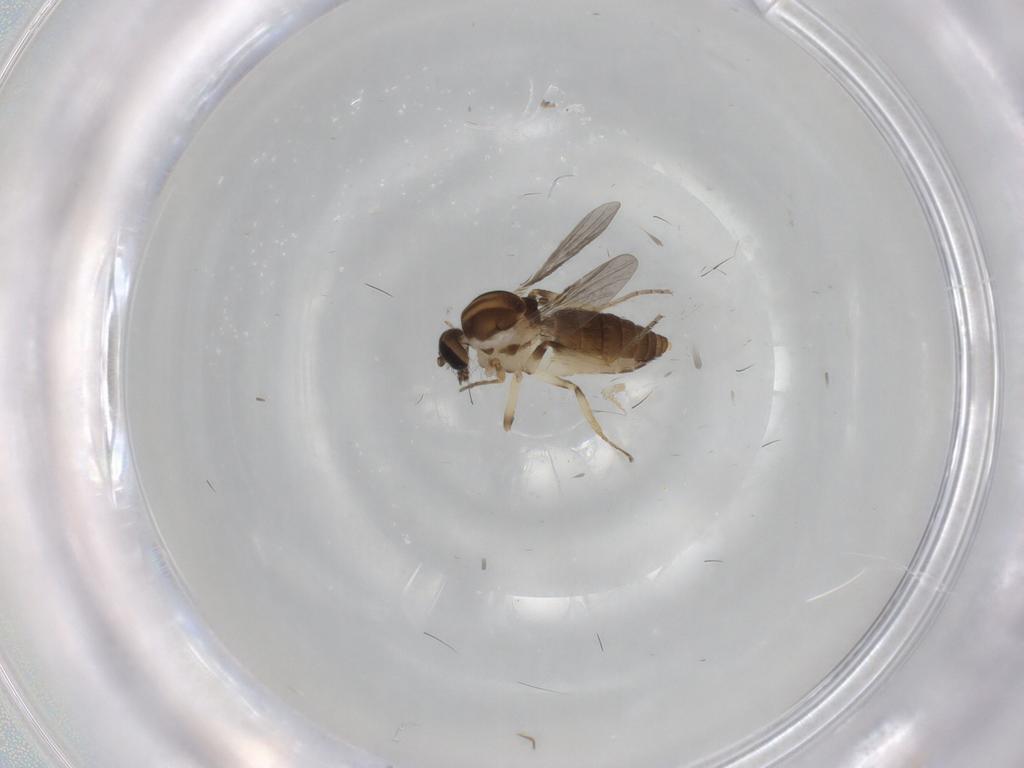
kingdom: Animalia
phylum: Arthropoda
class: Insecta
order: Diptera
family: Ceratopogonidae
